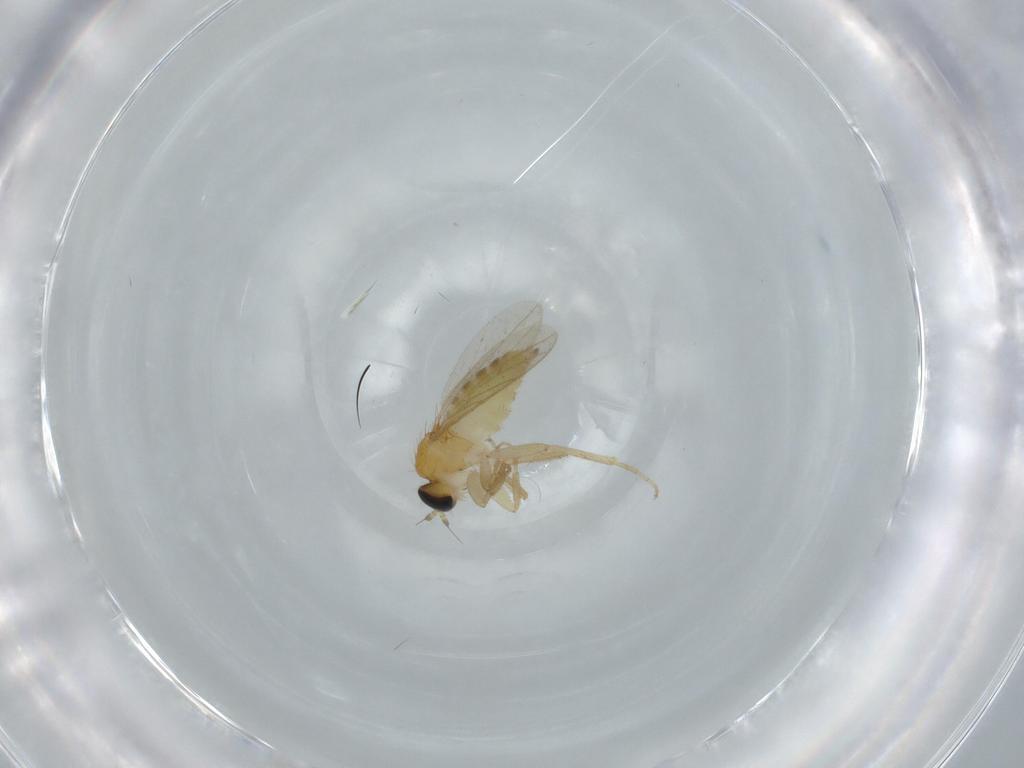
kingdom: Animalia
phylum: Arthropoda
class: Insecta
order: Diptera
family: Hybotidae
